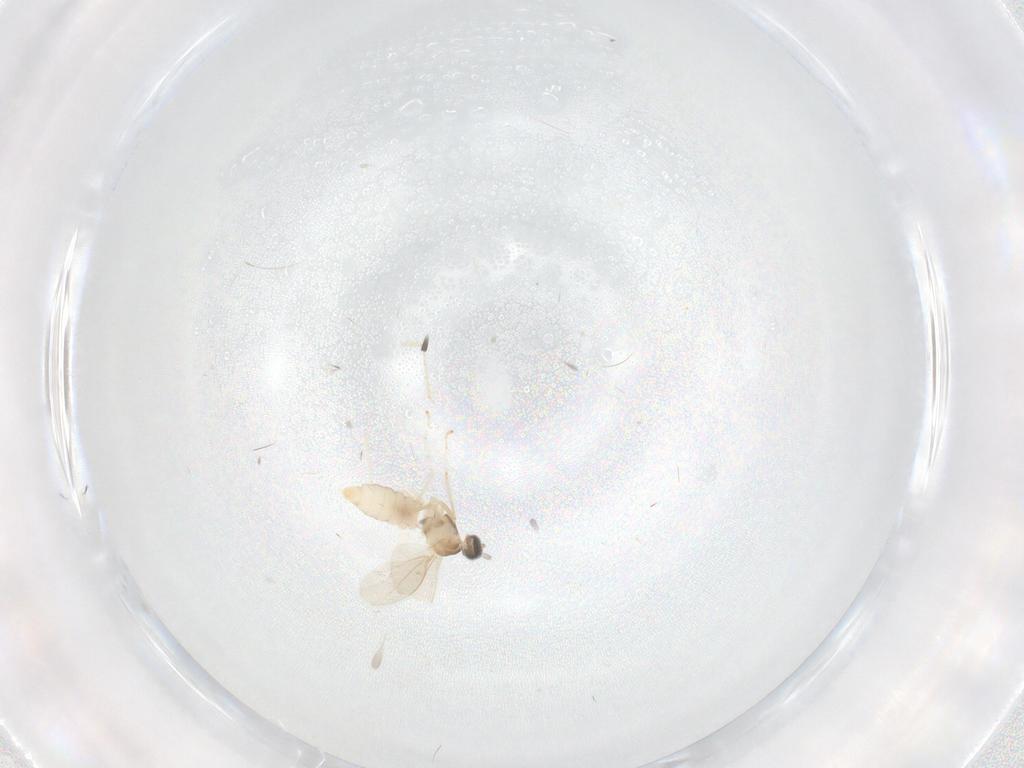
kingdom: Animalia
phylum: Arthropoda
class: Insecta
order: Diptera
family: Cecidomyiidae
